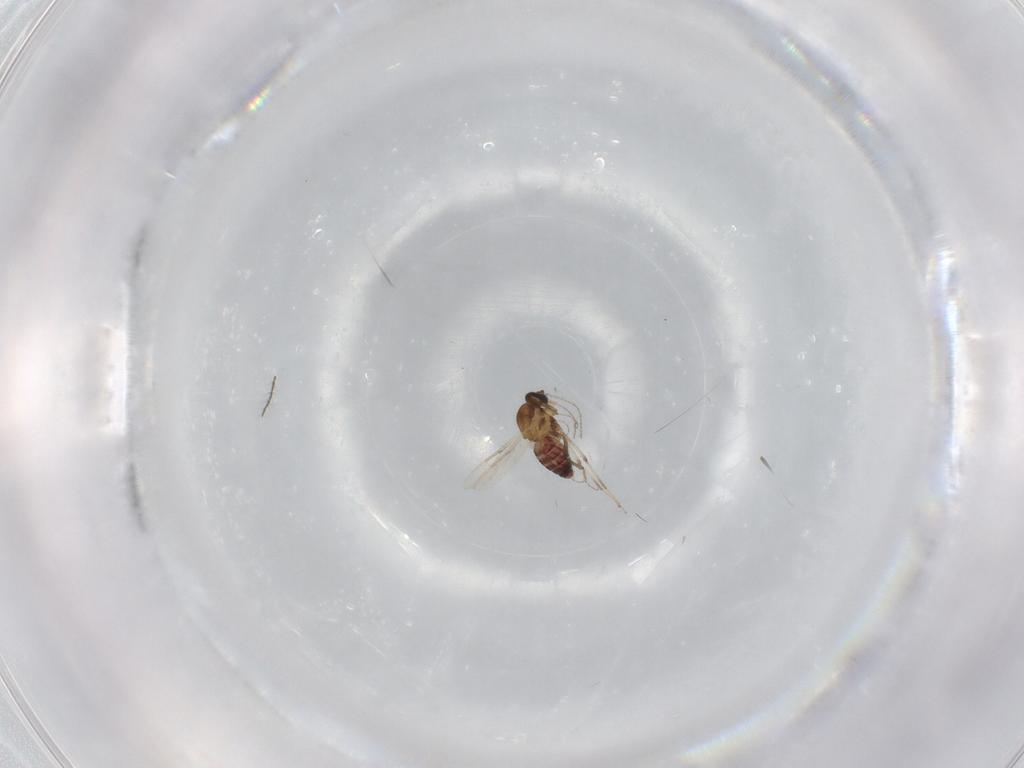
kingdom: Animalia
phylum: Arthropoda
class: Insecta
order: Diptera
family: Ceratopogonidae
